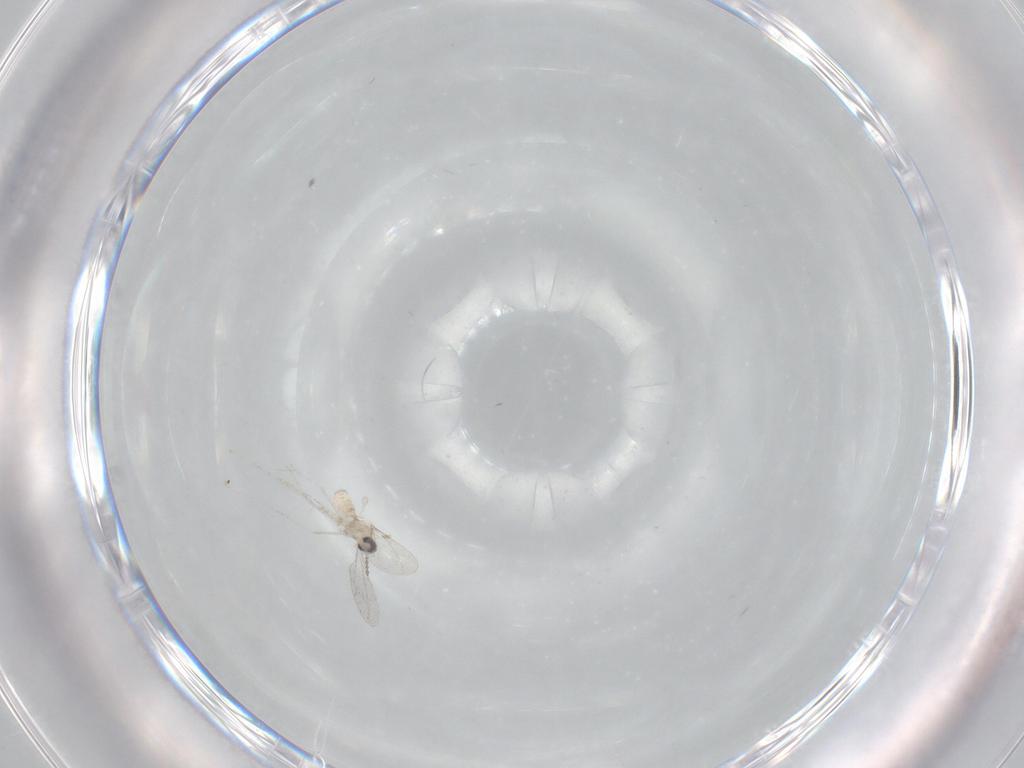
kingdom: Animalia
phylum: Arthropoda
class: Insecta
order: Diptera
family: Cecidomyiidae
